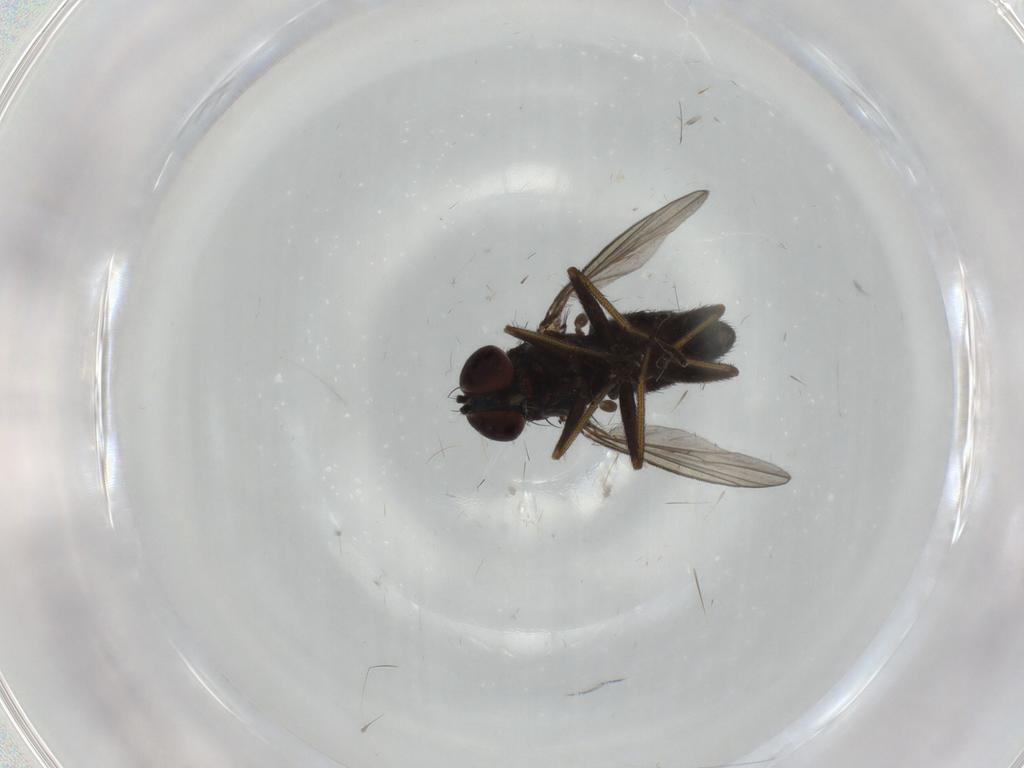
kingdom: Animalia
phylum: Arthropoda
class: Insecta
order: Diptera
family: Dolichopodidae
